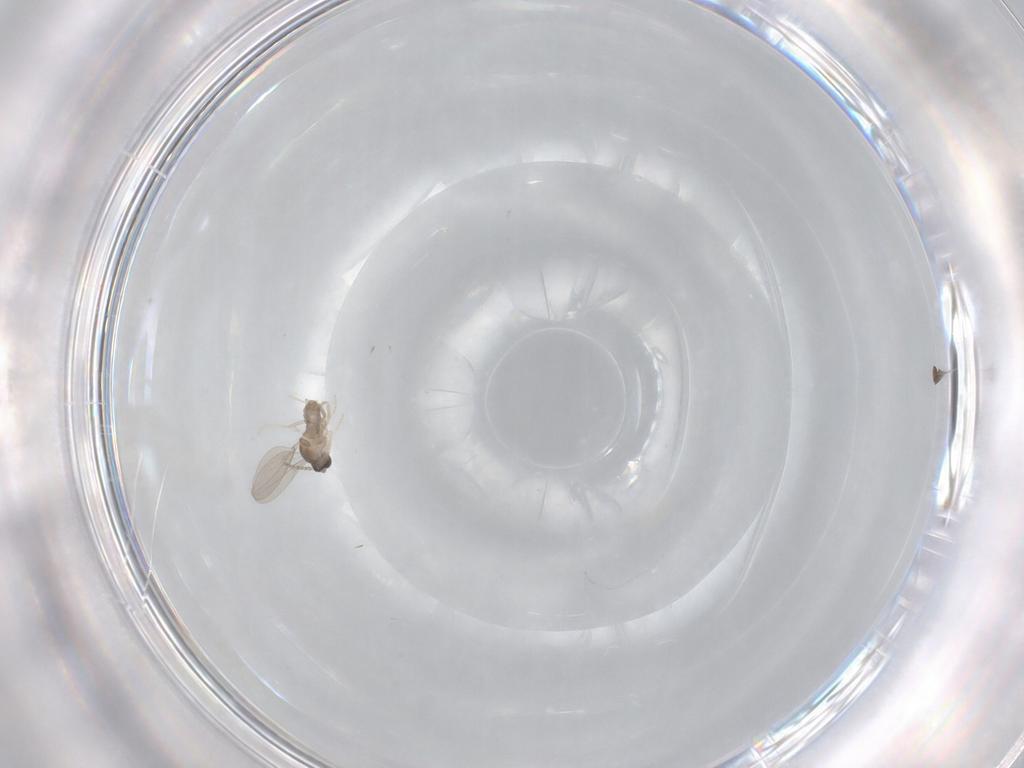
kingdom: Animalia
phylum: Arthropoda
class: Insecta
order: Diptera
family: Cecidomyiidae
